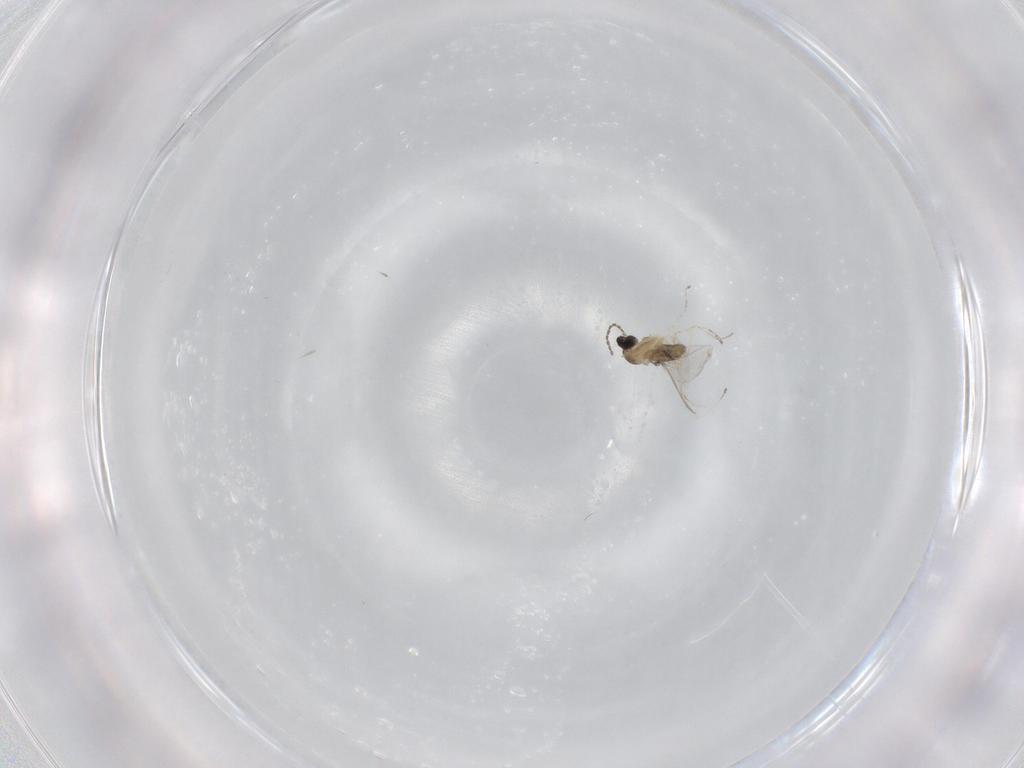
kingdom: Animalia
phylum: Arthropoda
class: Insecta
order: Diptera
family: Cecidomyiidae
